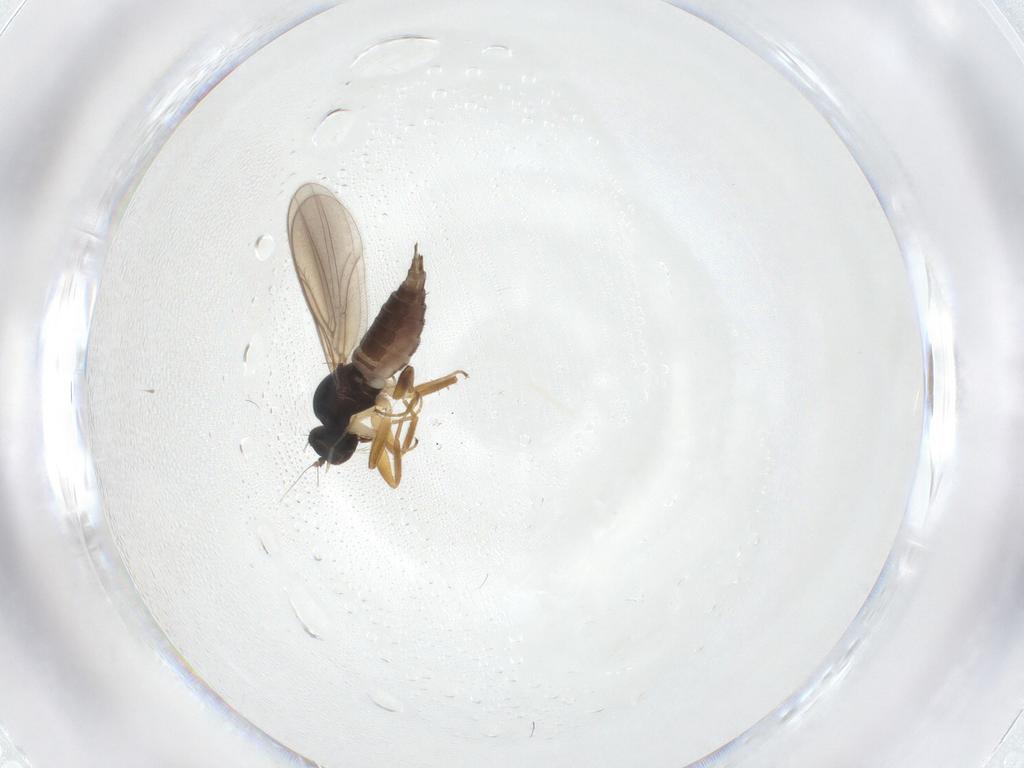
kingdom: Animalia
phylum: Arthropoda
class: Insecta
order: Diptera
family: Hybotidae
